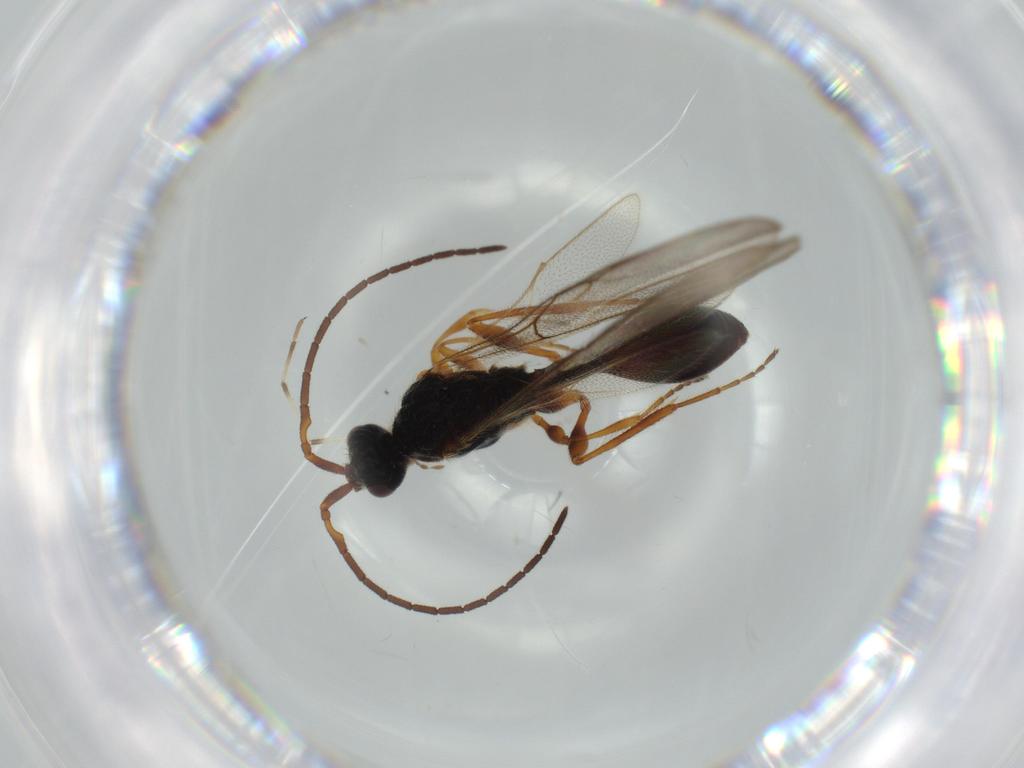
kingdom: Animalia
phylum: Arthropoda
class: Insecta
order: Hymenoptera
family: Diapriidae
